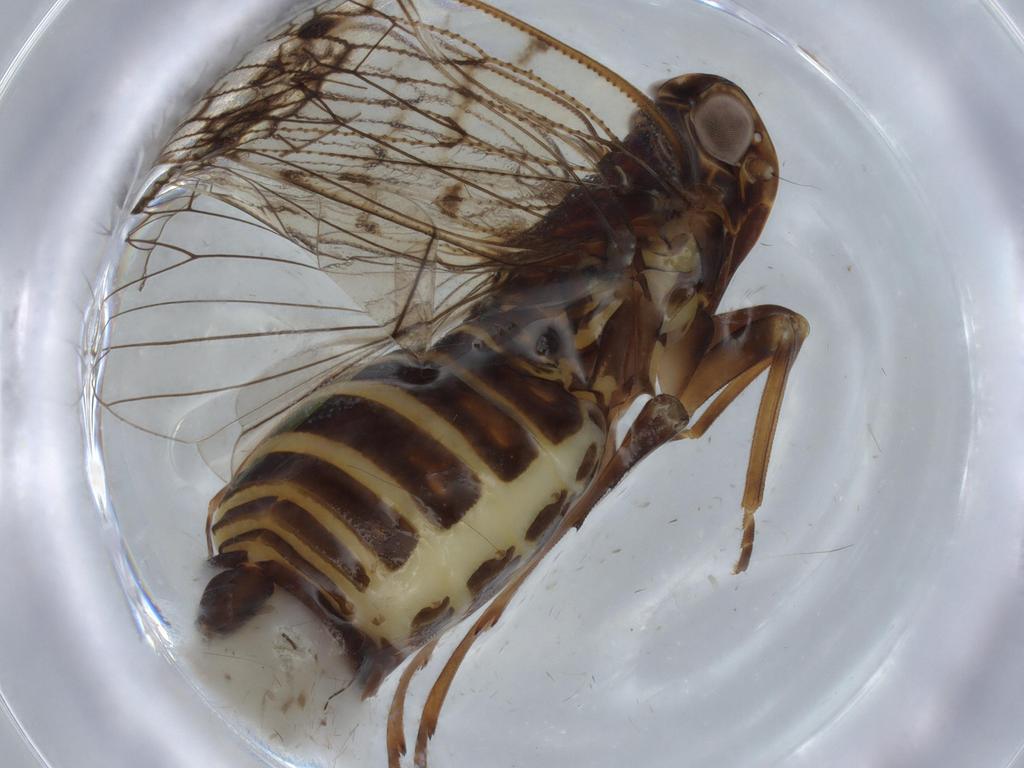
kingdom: Animalia
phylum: Arthropoda
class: Insecta
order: Hemiptera
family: Cixiidae
